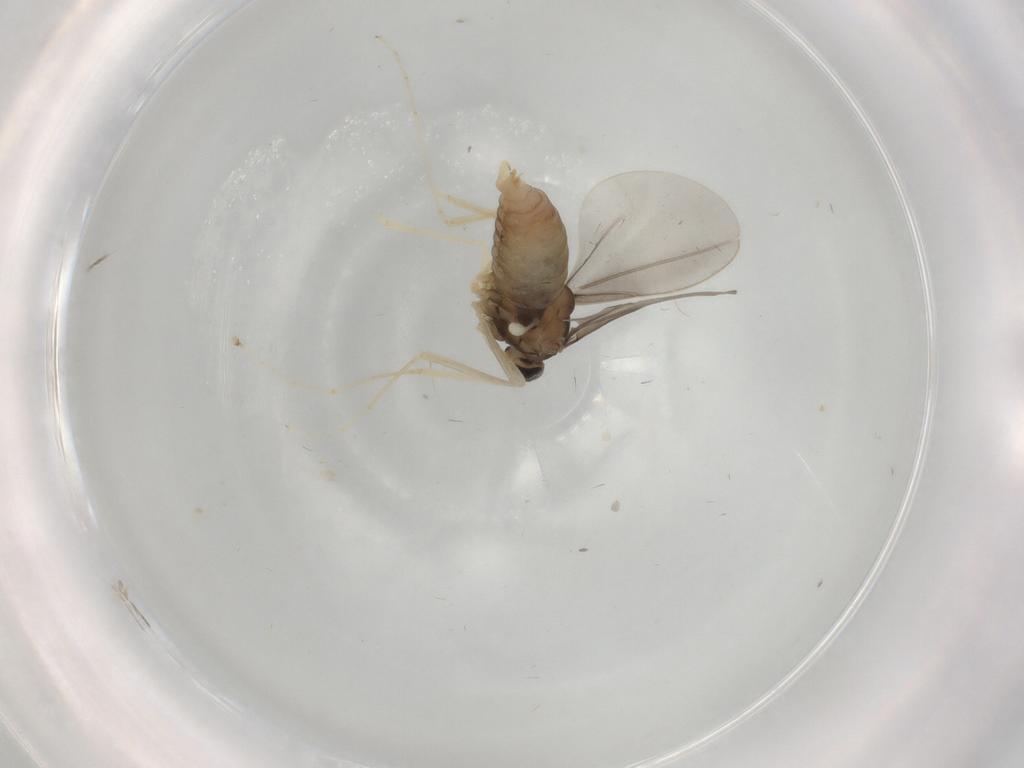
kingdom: Animalia
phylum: Arthropoda
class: Insecta
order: Diptera
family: Cecidomyiidae
